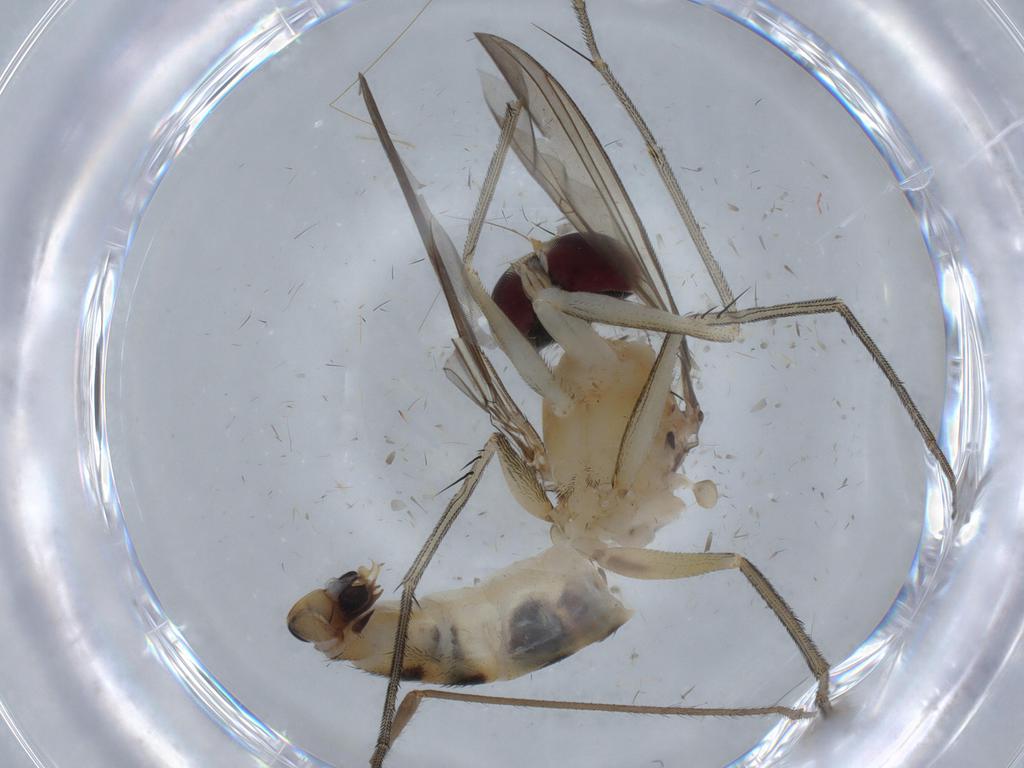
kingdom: Animalia
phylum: Arthropoda
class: Insecta
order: Diptera
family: Dolichopodidae
